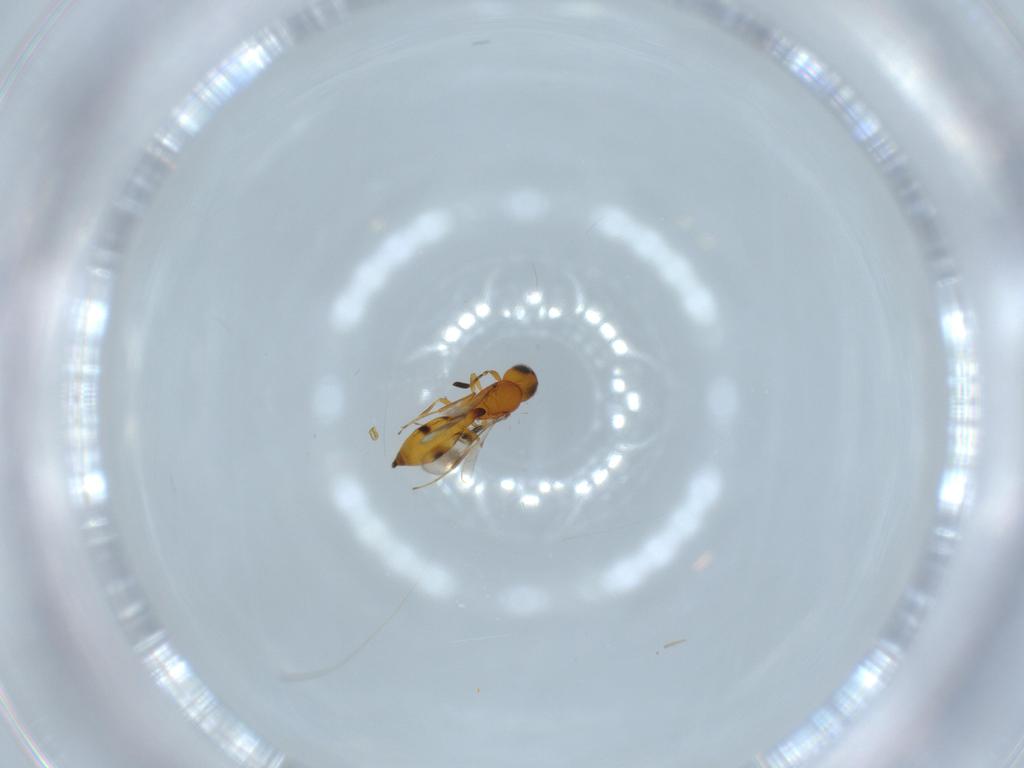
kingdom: Animalia
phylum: Arthropoda
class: Insecta
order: Hymenoptera
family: Scelionidae
